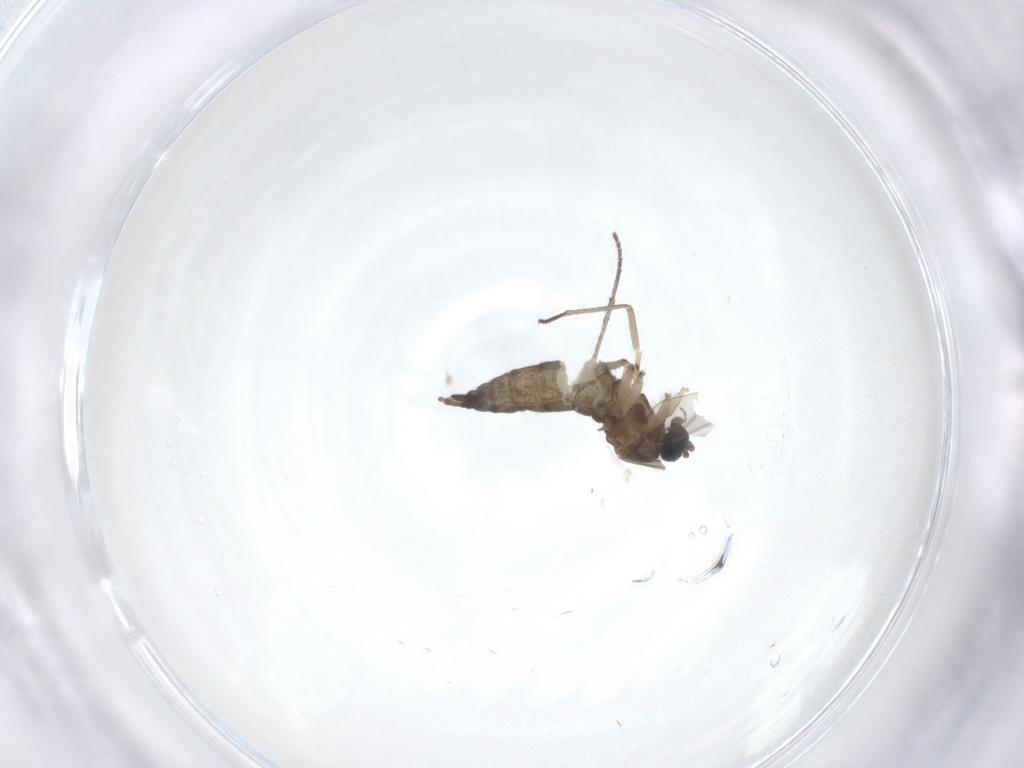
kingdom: Animalia
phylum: Arthropoda
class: Insecta
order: Diptera
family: Sciaridae
